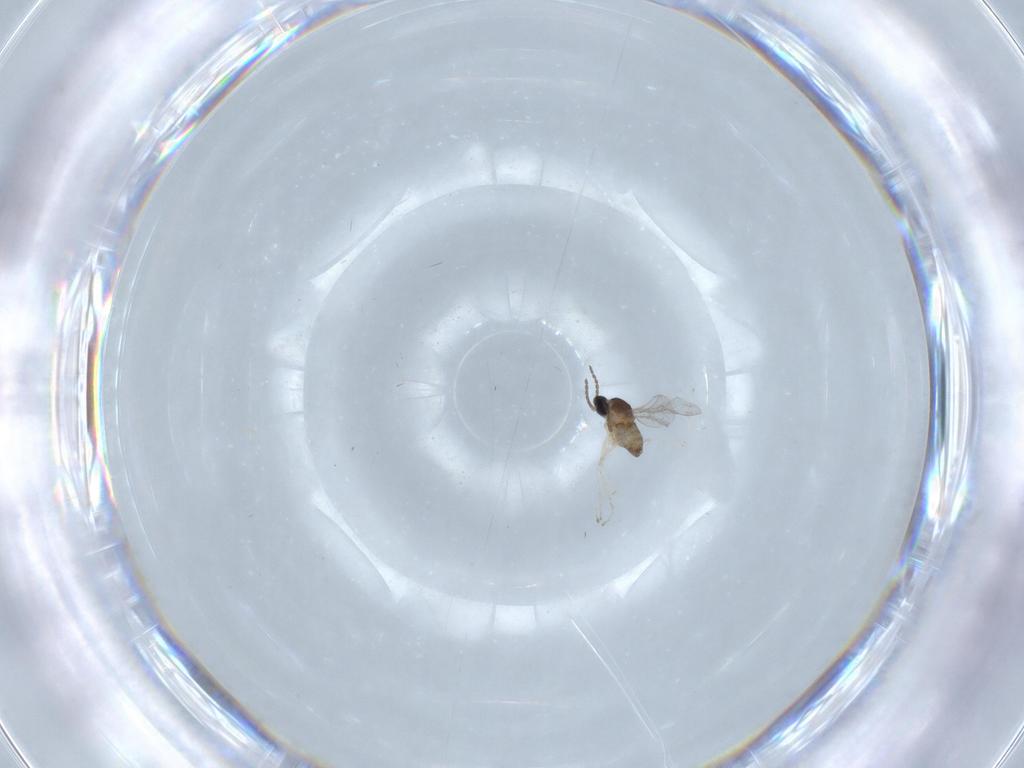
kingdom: Animalia
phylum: Arthropoda
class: Insecta
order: Diptera
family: Cecidomyiidae
